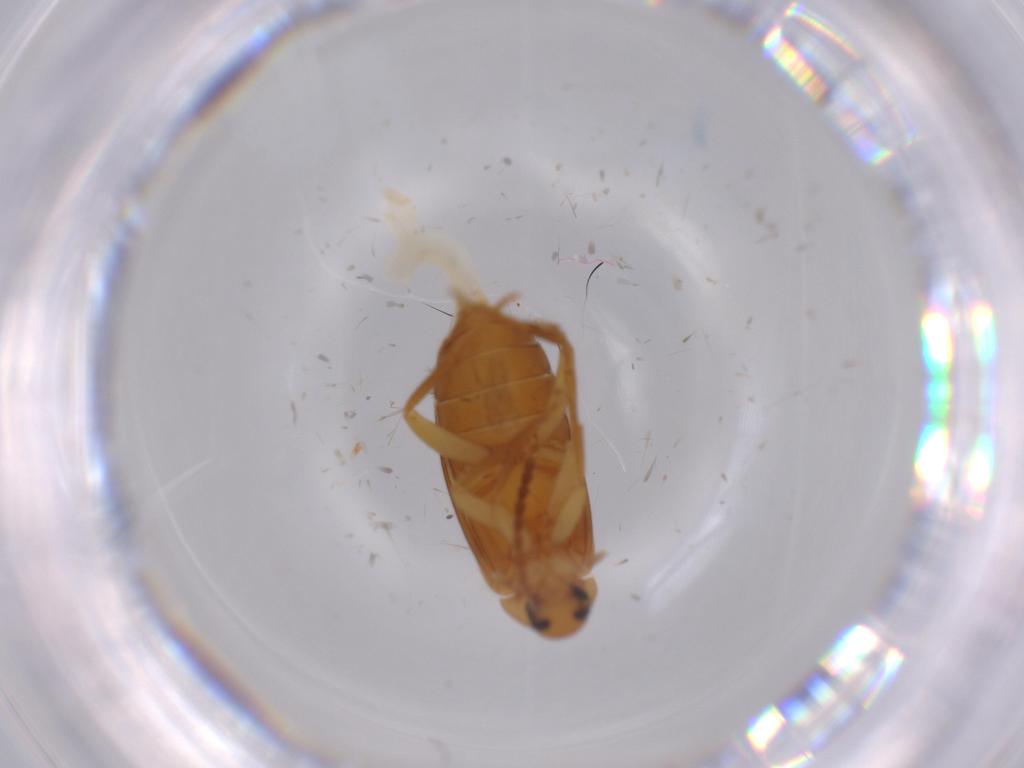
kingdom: Animalia
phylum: Arthropoda
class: Insecta
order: Coleoptera
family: Scraptiidae
